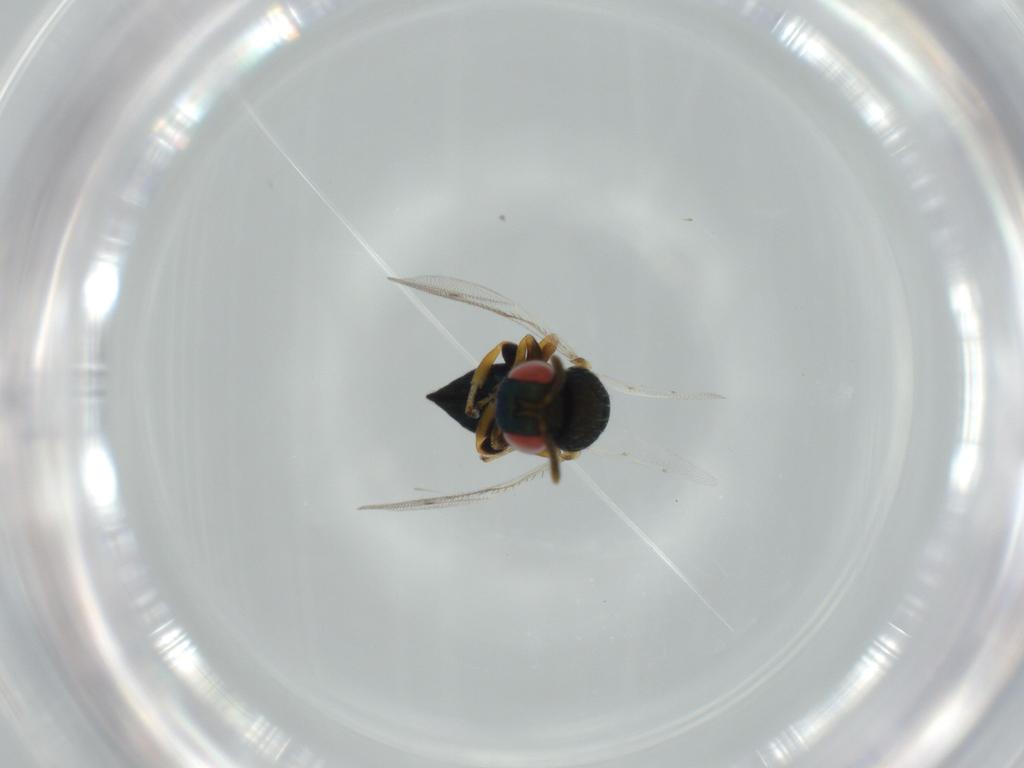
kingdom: Animalia
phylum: Arthropoda
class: Insecta
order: Hymenoptera
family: Pteromalidae
